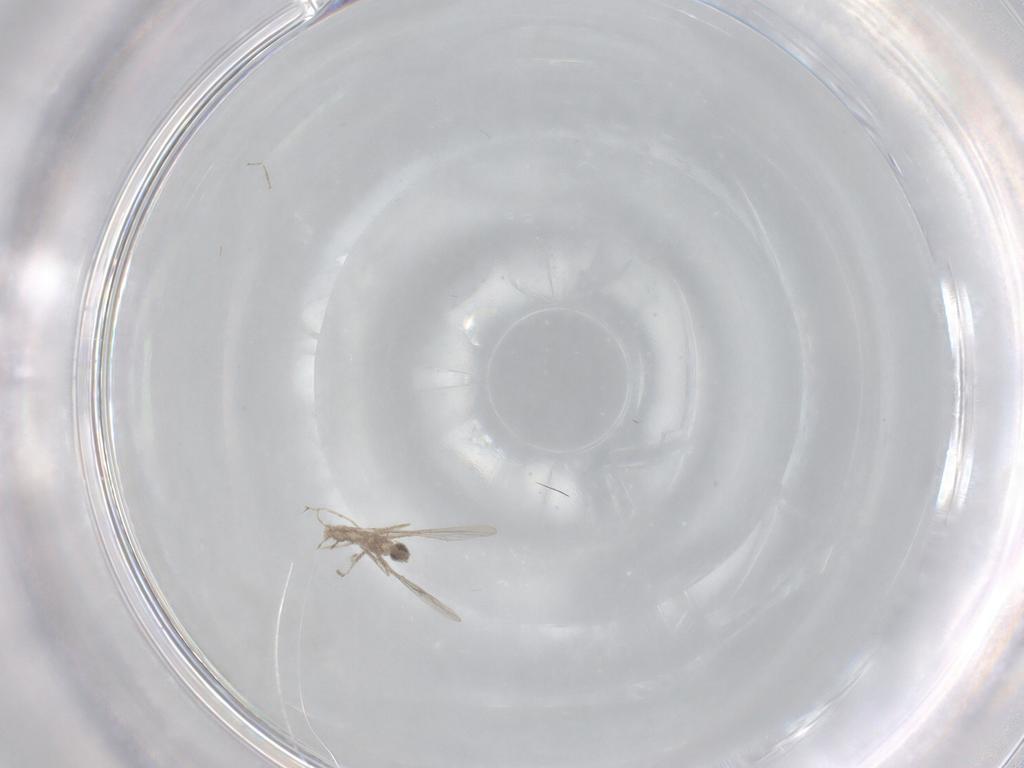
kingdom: Animalia
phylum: Arthropoda
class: Insecta
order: Diptera
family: Cecidomyiidae
